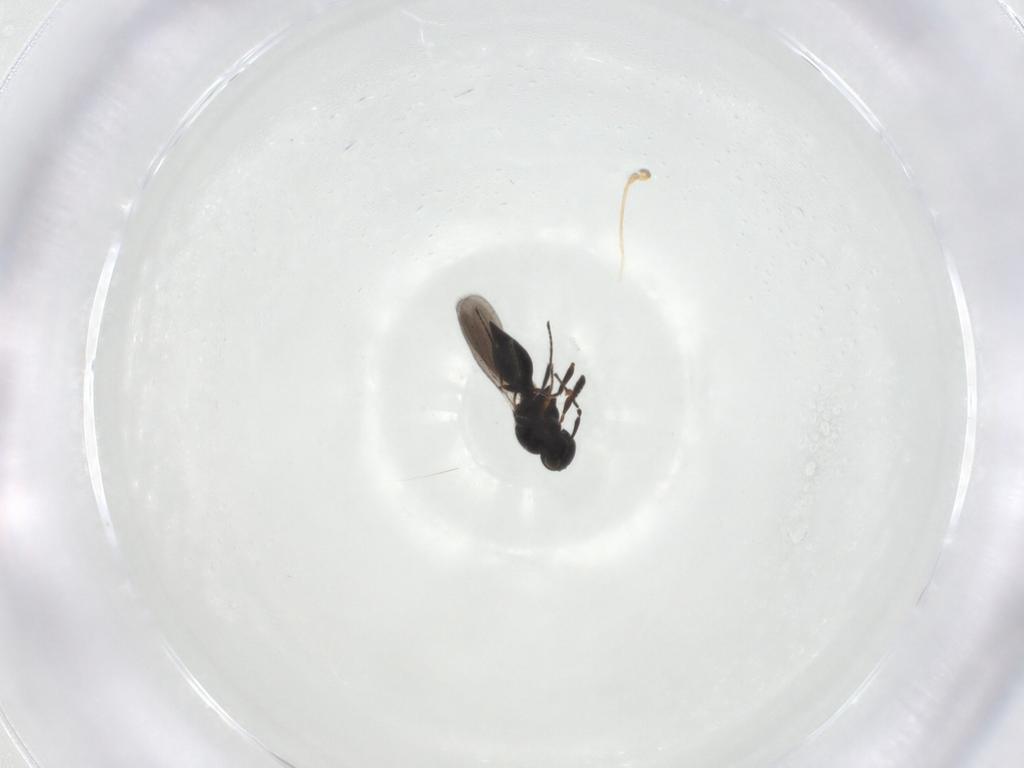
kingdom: Animalia
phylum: Arthropoda
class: Insecta
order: Hymenoptera
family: Platygastridae
